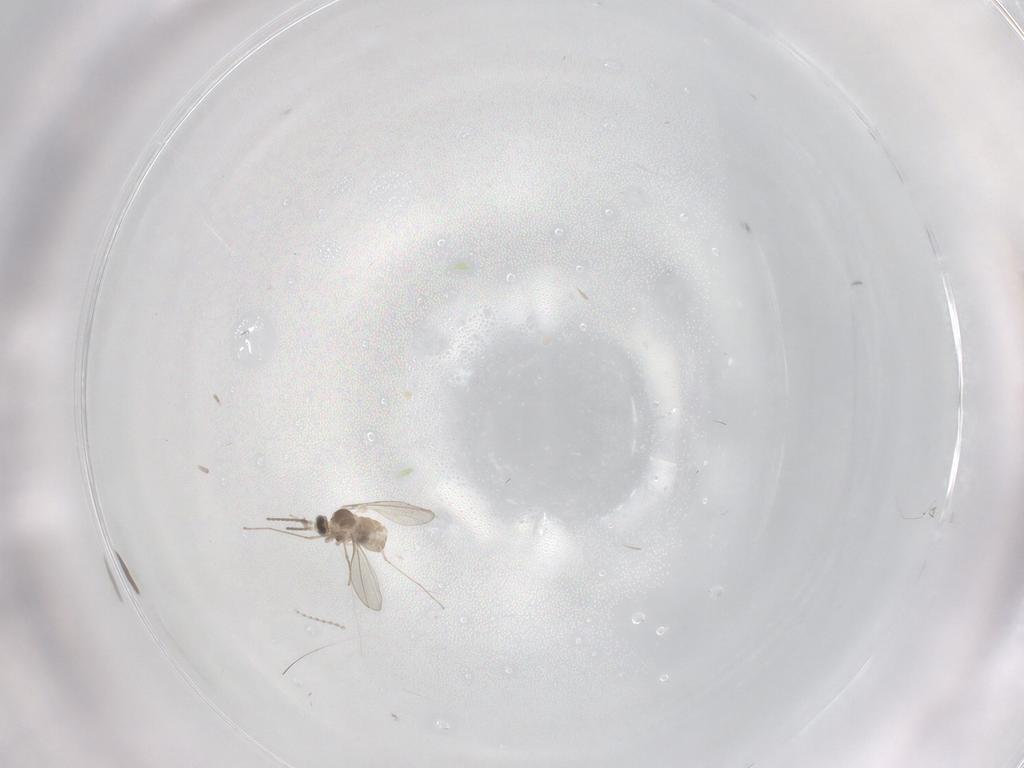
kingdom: Animalia
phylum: Arthropoda
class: Insecta
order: Diptera
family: Cecidomyiidae
